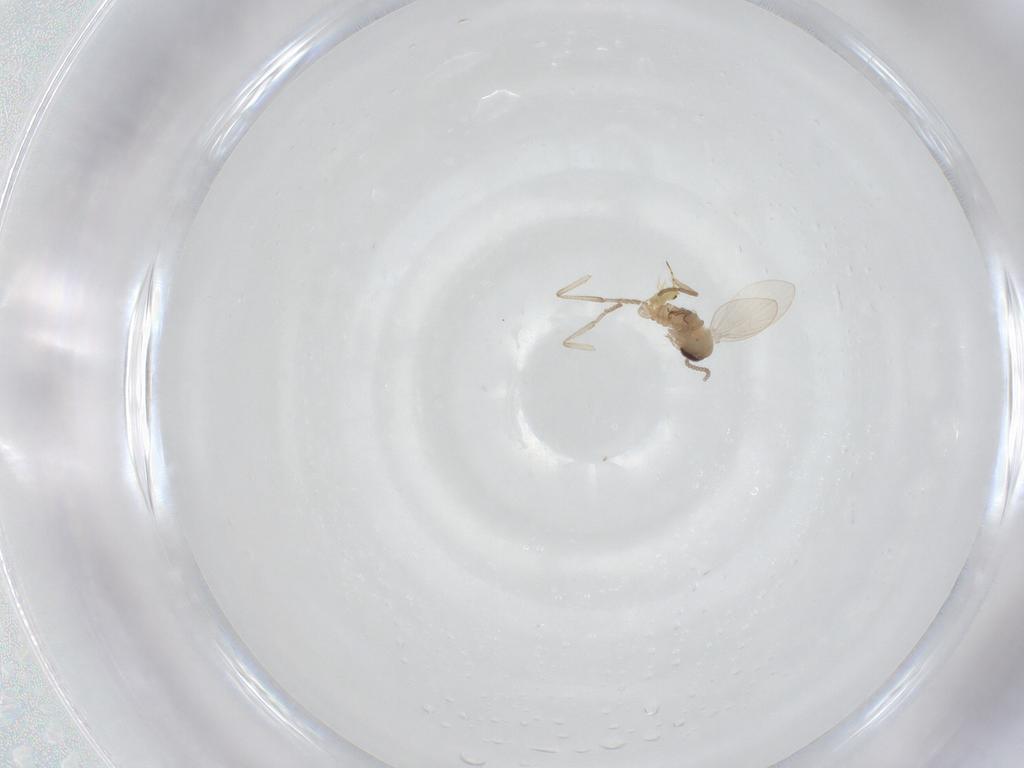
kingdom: Animalia
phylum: Arthropoda
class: Insecta
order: Diptera
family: Psychodidae
